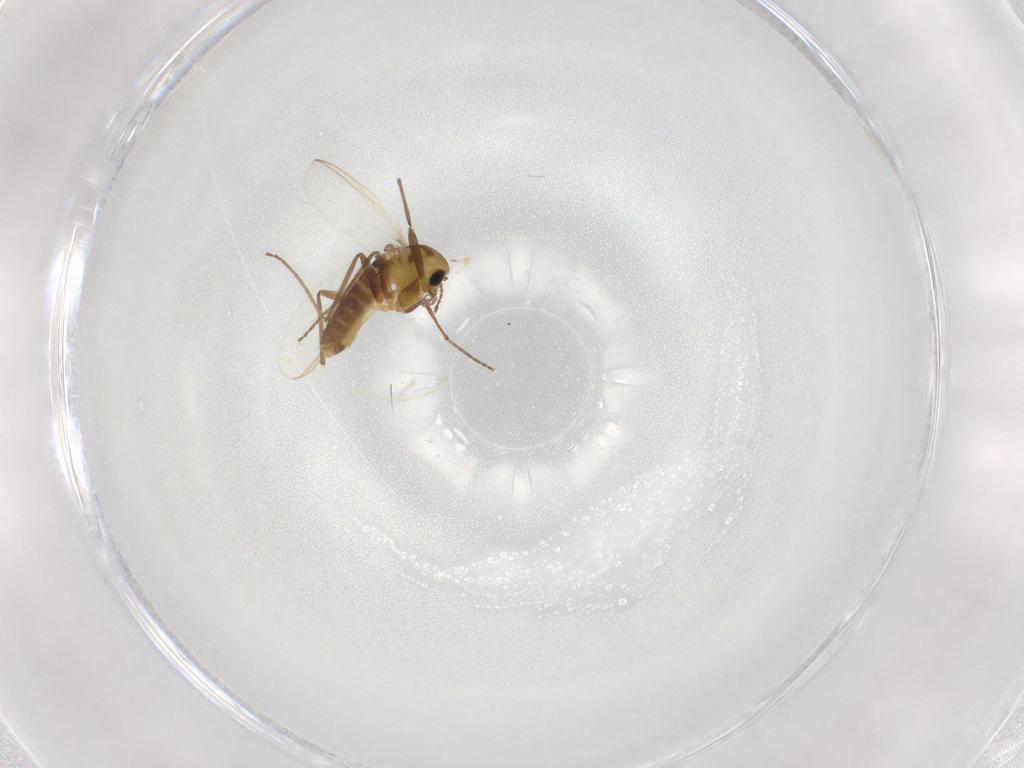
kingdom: Animalia
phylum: Arthropoda
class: Insecta
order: Diptera
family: Chironomidae
